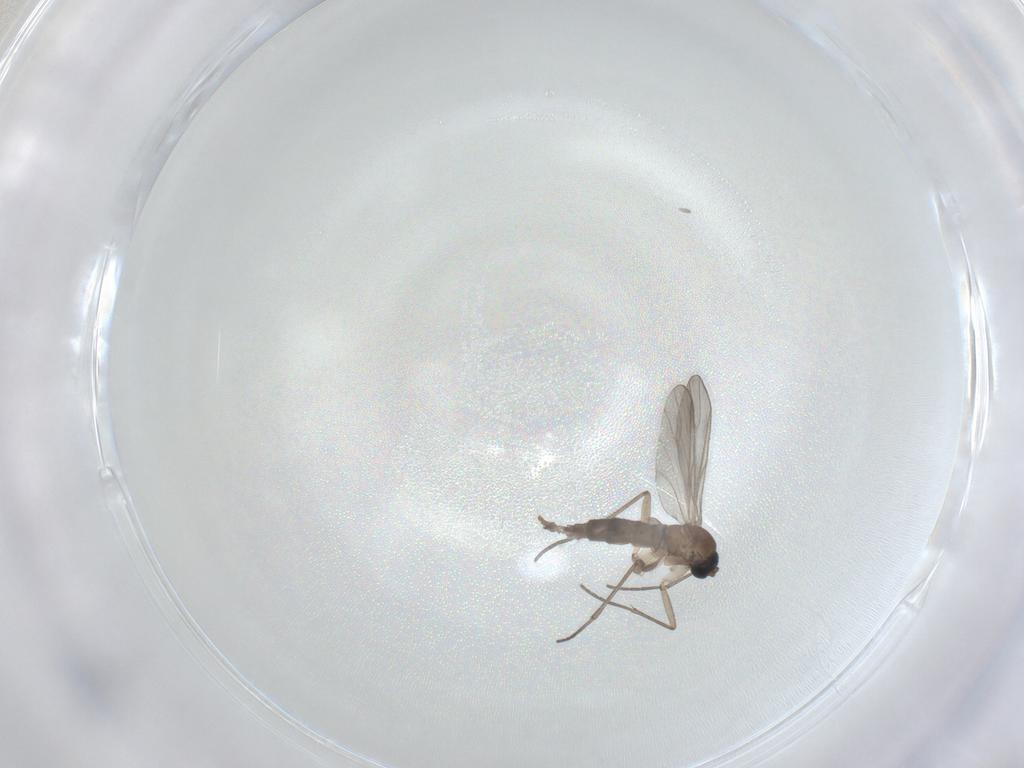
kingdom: Animalia
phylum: Arthropoda
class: Insecta
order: Diptera
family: Sciaridae
